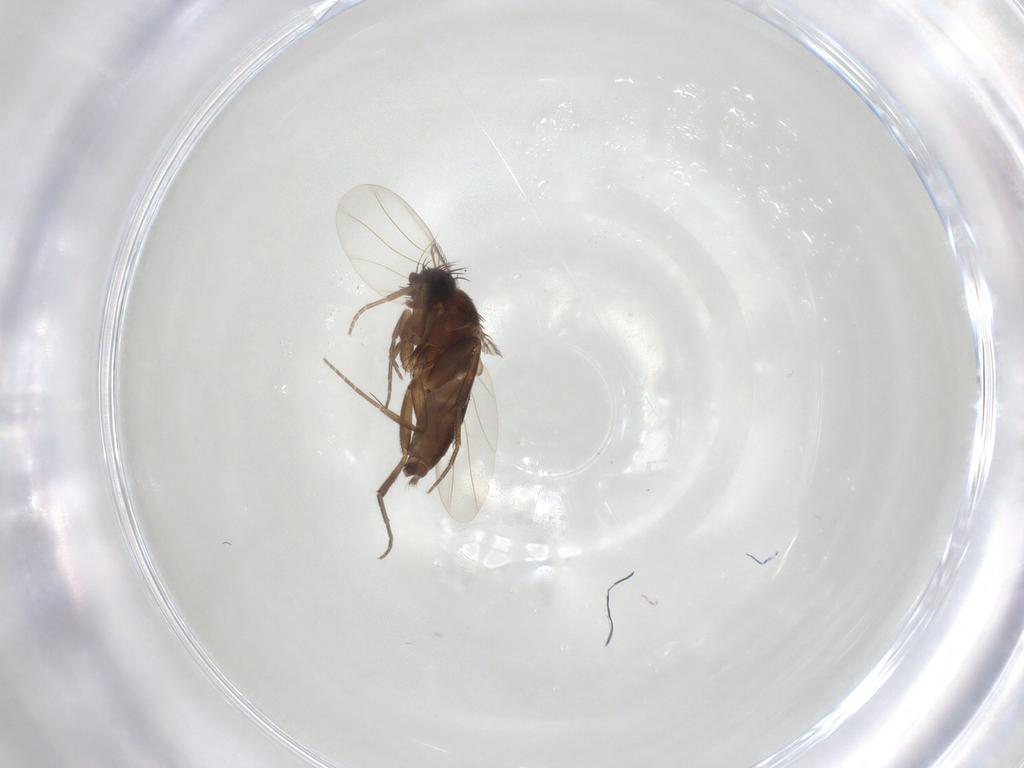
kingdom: Animalia
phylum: Arthropoda
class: Insecta
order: Diptera
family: Phoridae
